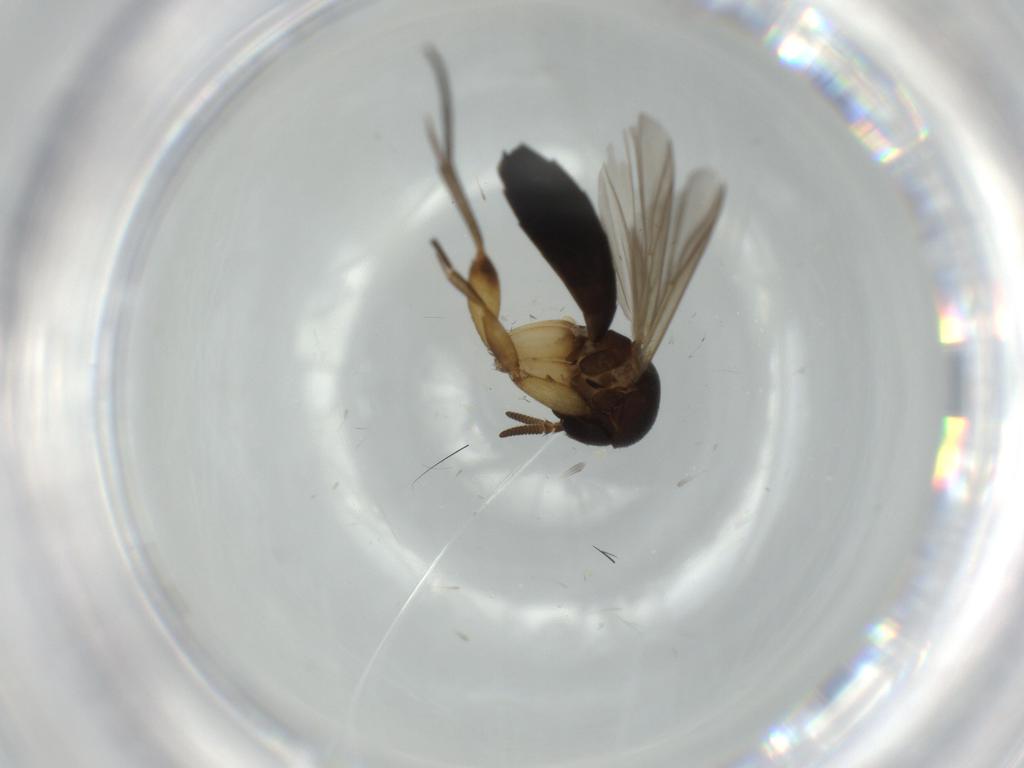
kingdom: Animalia
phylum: Arthropoda
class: Insecta
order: Diptera
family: Mycetophilidae
